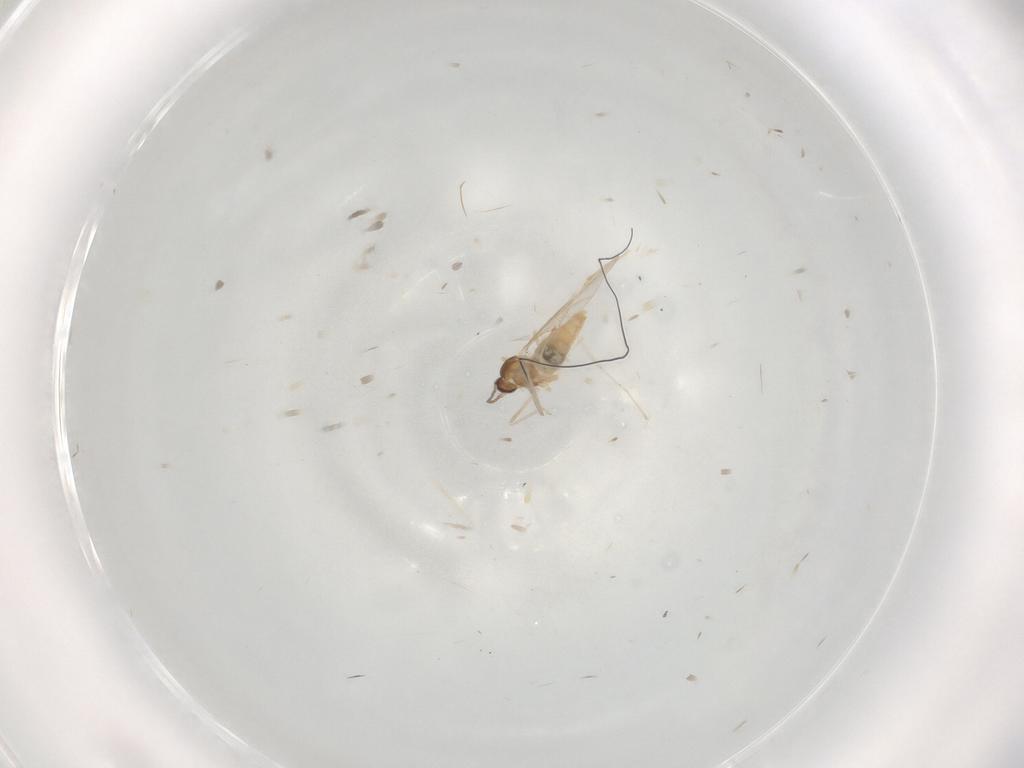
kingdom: Animalia
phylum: Arthropoda
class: Insecta
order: Diptera
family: Cecidomyiidae
